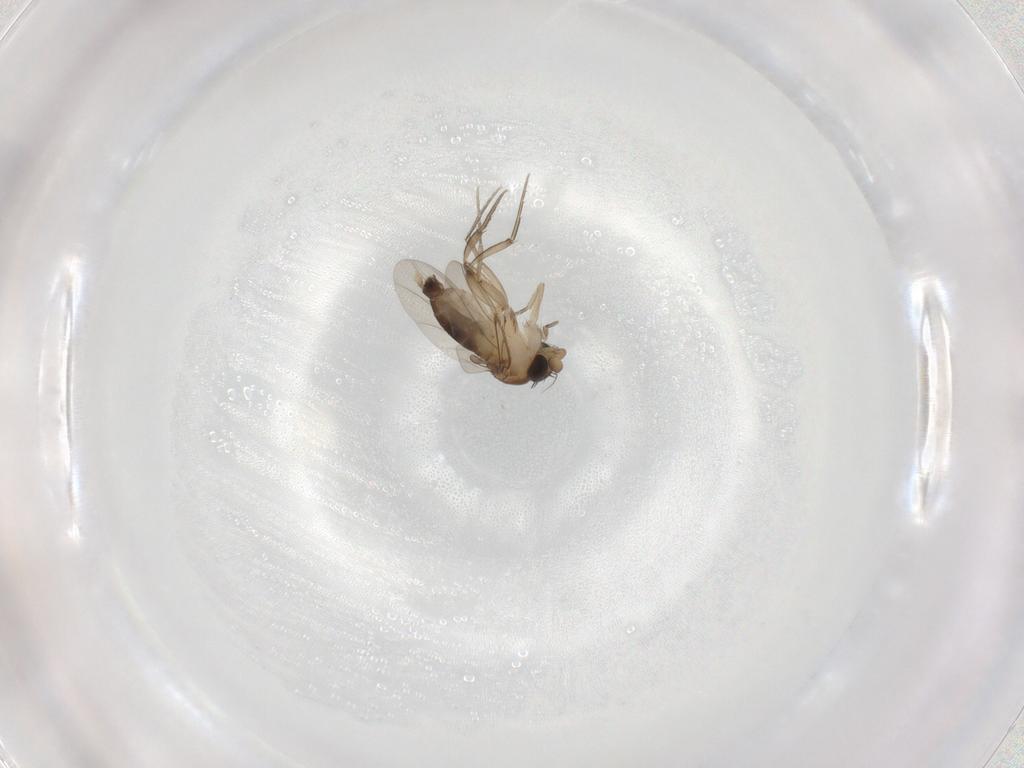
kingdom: Animalia
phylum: Arthropoda
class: Insecta
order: Diptera
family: Phoridae
